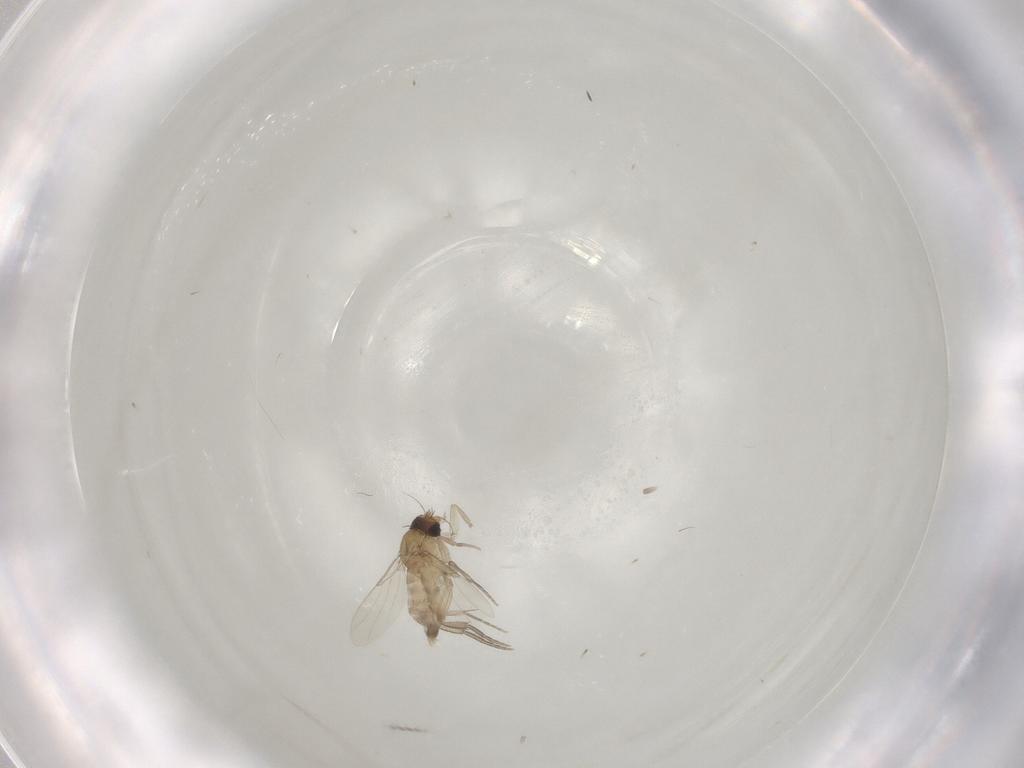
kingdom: Animalia
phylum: Arthropoda
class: Insecta
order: Diptera
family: Phoridae
